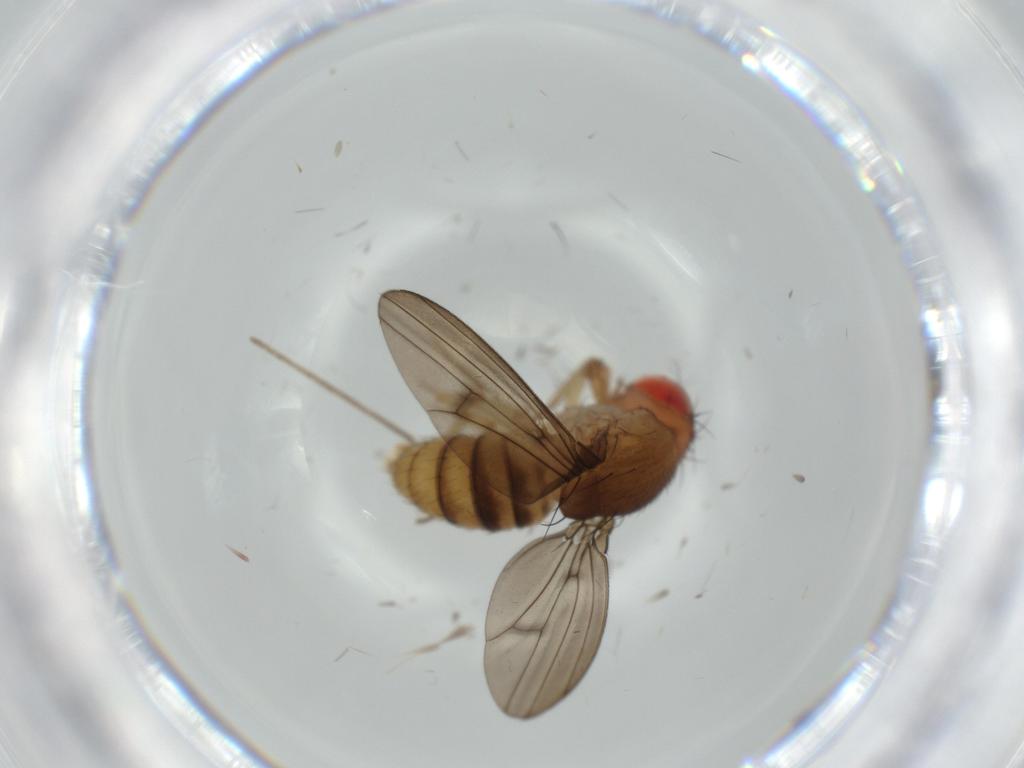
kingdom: Animalia
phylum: Arthropoda
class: Insecta
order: Diptera
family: Drosophilidae
